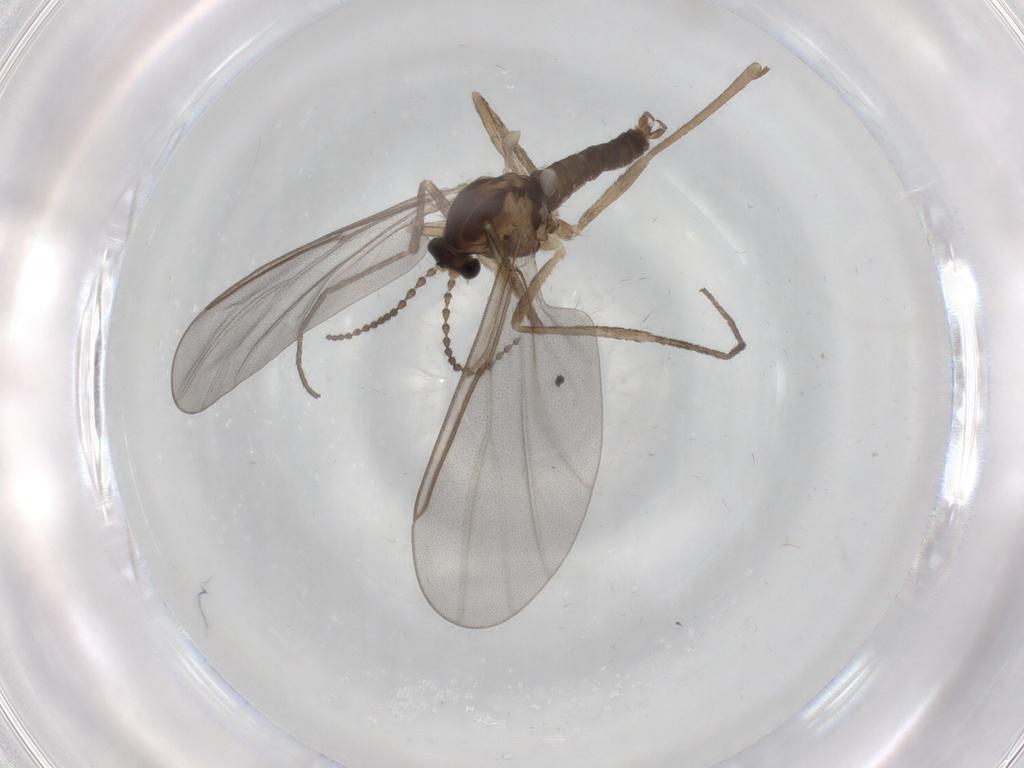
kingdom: Animalia
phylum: Arthropoda
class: Insecta
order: Diptera
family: Cecidomyiidae
